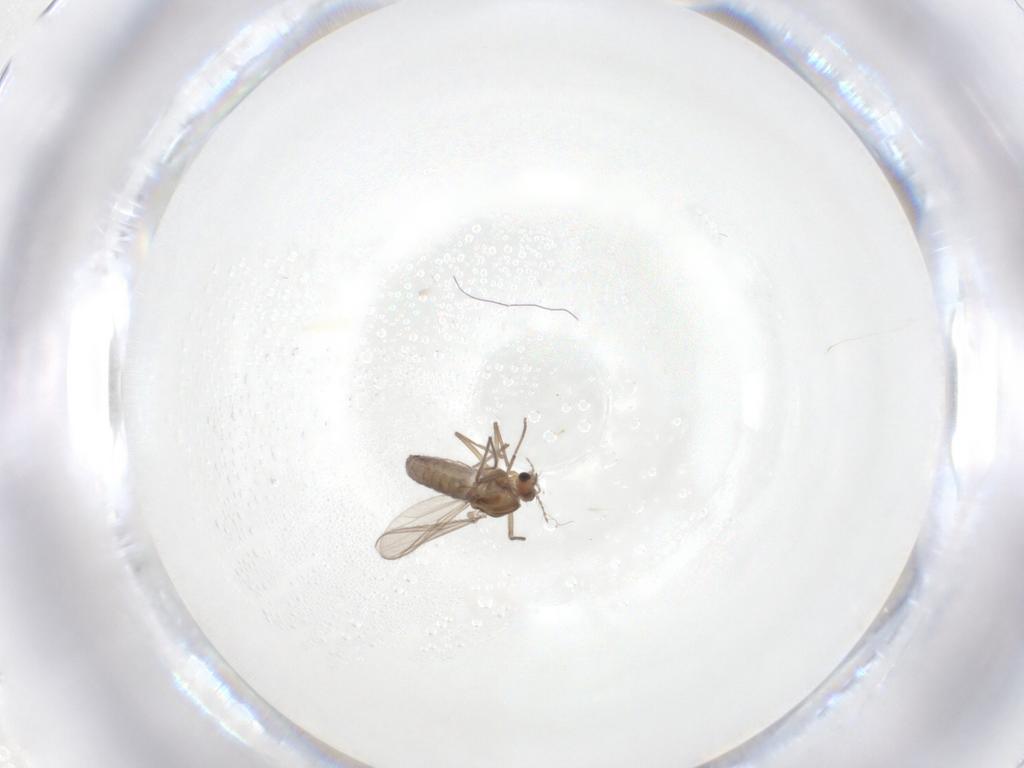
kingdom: Animalia
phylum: Arthropoda
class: Insecta
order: Diptera
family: Chironomidae
